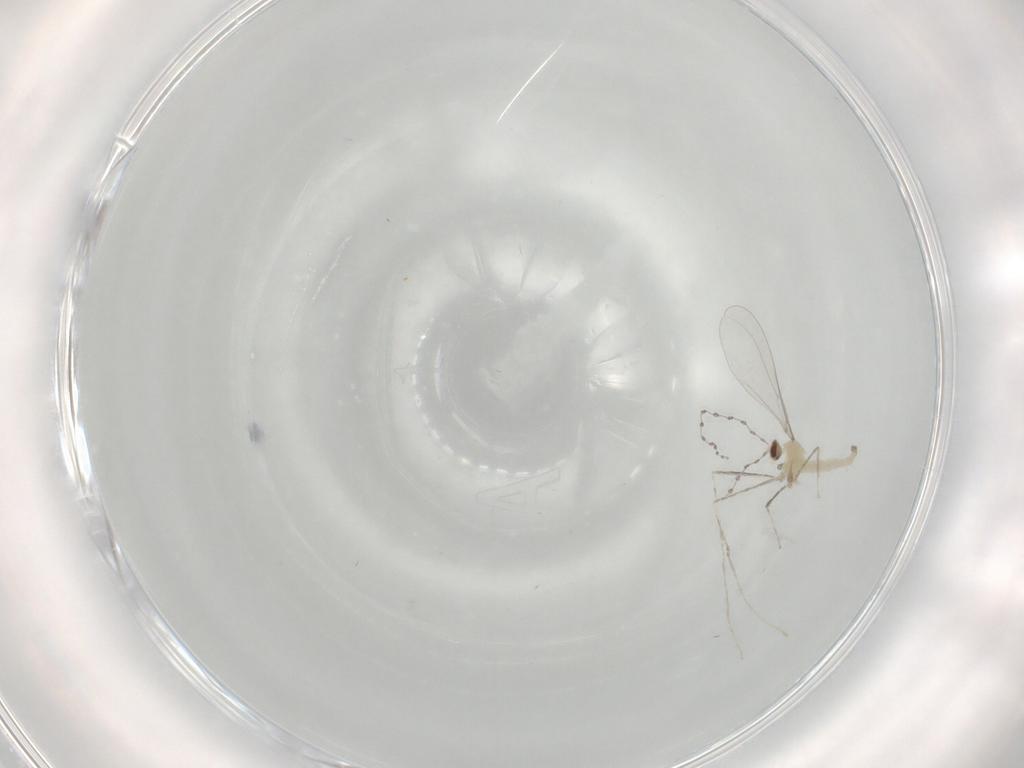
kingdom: Animalia
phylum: Arthropoda
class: Insecta
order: Diptera
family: Cecidomyiidae
